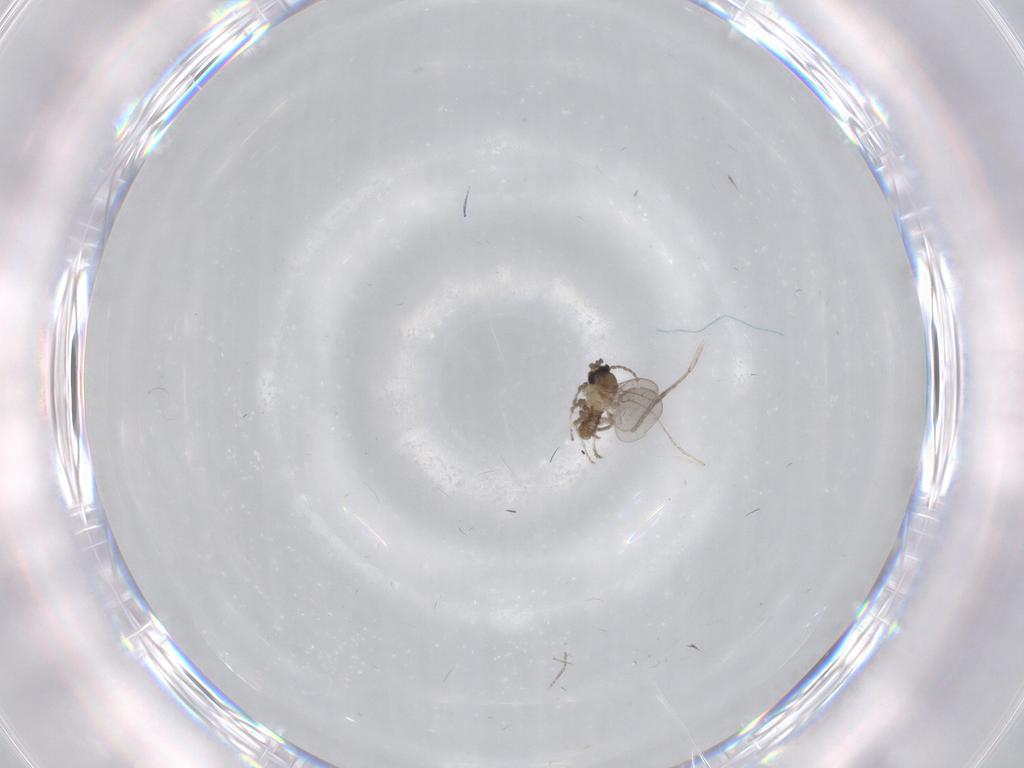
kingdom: Animalia
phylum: Arthropoda
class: Insecta
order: Diptera
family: Cecidomyiidae
